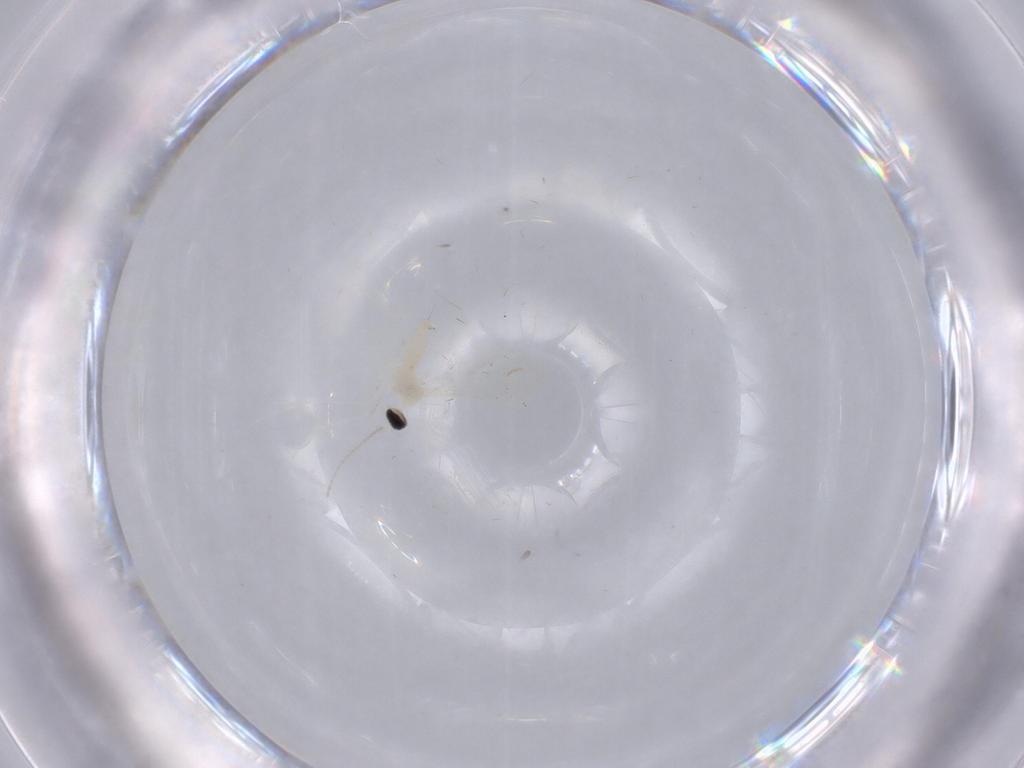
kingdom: Animalia
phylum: Arthropoda
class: Insecta
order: Diptera
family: Cecidomyiidae
